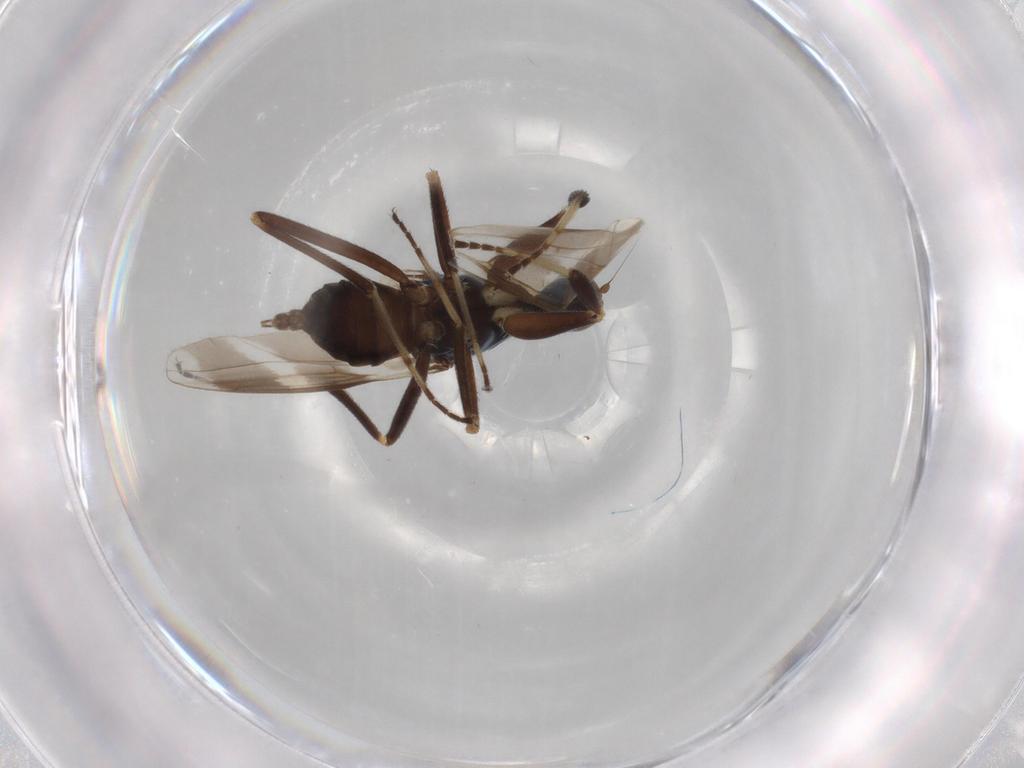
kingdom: Animalia
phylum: Arthropoda
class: Insecta
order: Diptera
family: Hybotidae
